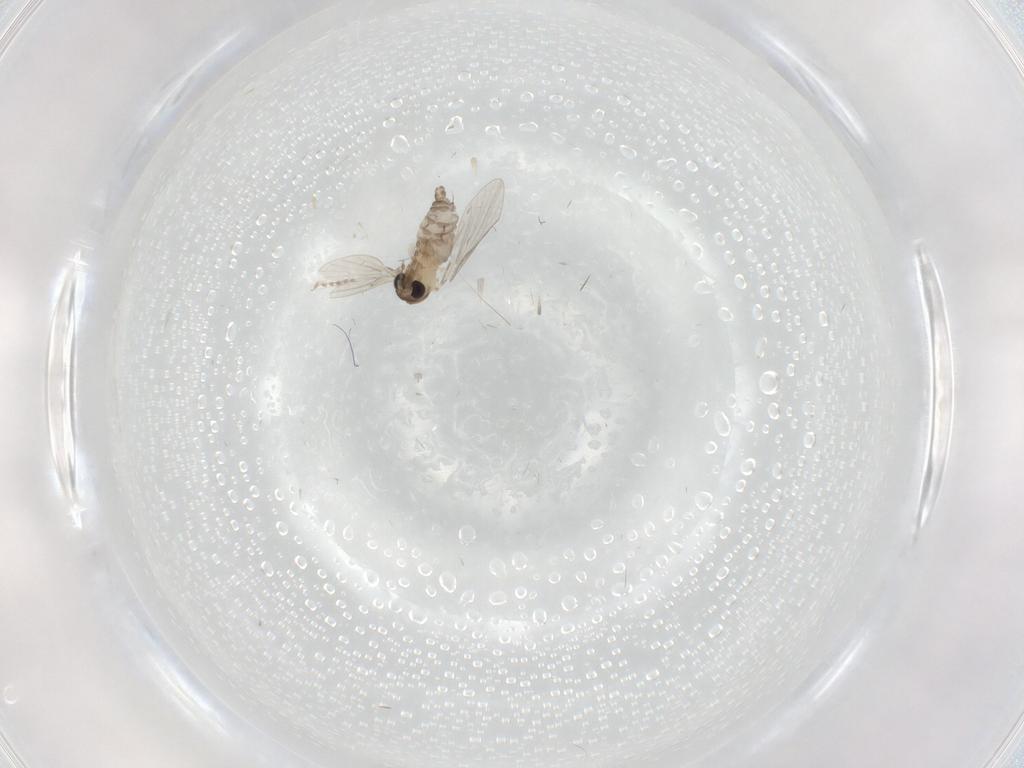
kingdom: Animalia
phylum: Arthropoda
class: Insecta
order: Diptera
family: Cecidomyiidae
